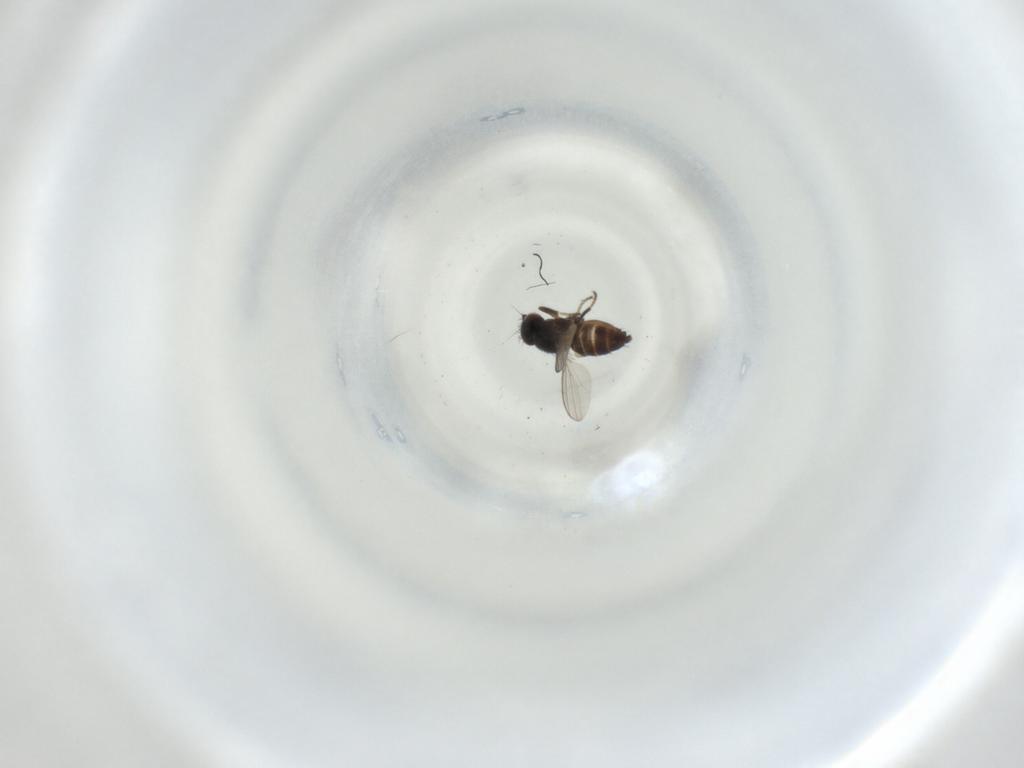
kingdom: Animalia
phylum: Arthropoda
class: Insecta
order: Diptera
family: Milichiidae
